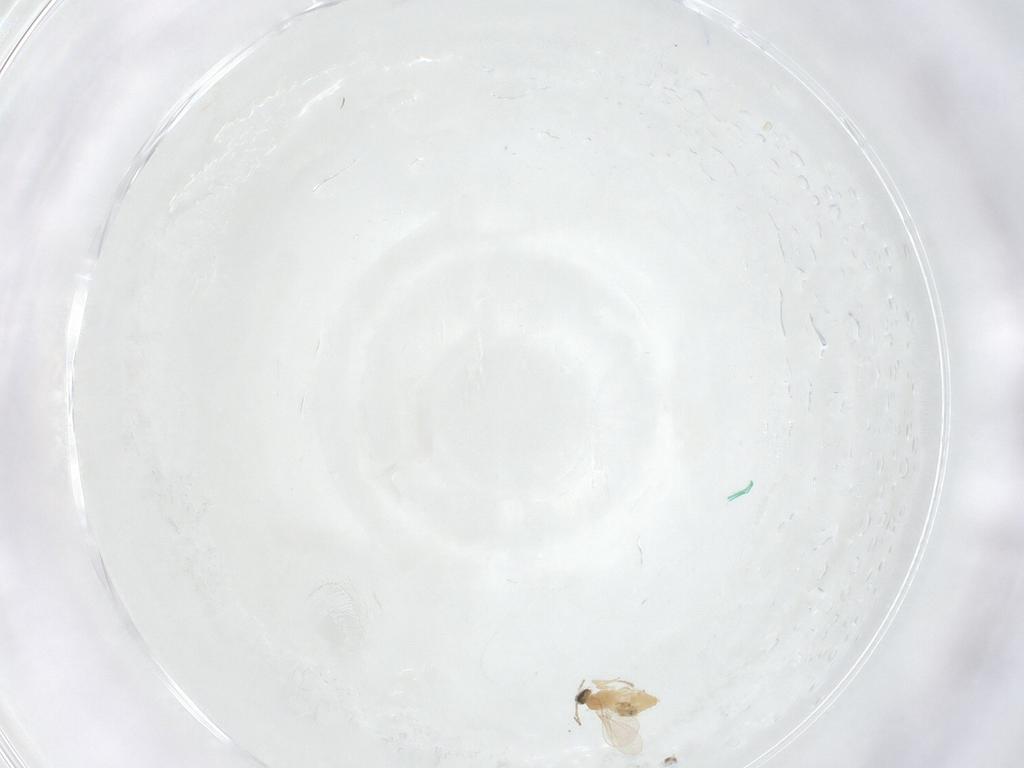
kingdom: Animalia
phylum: Arthropoda
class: Insecta
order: Diptera
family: Cecidomyiidae
